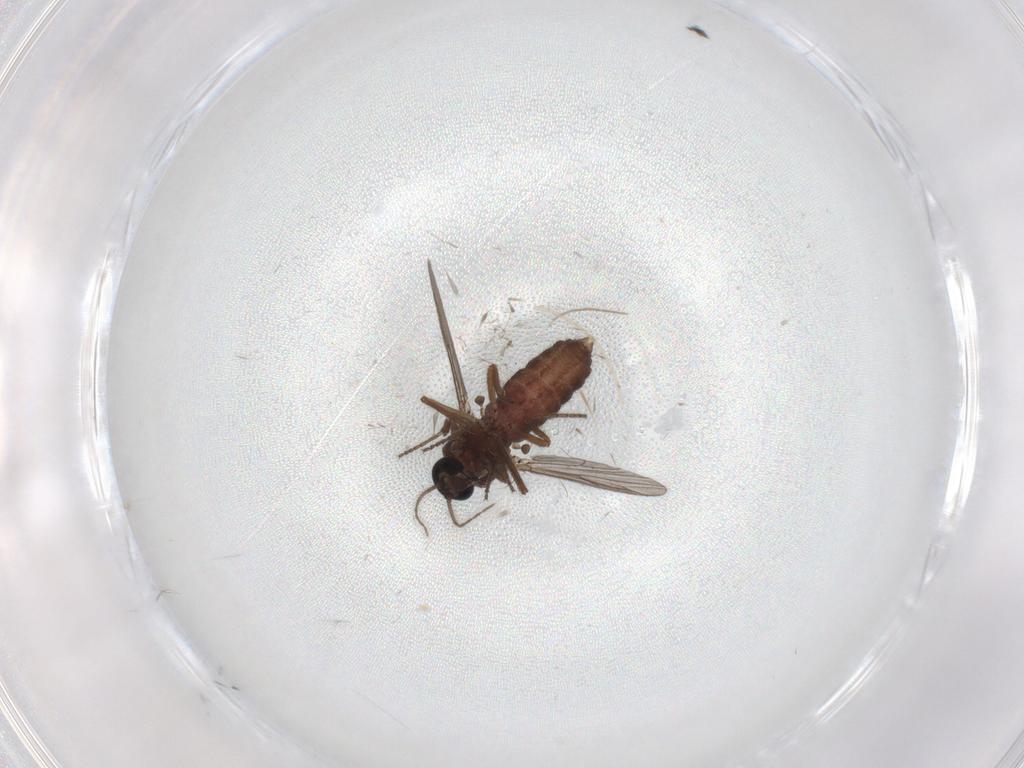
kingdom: Animalia
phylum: Arthropoda
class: Insecta
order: Diptera
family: Ceratopogonidae
